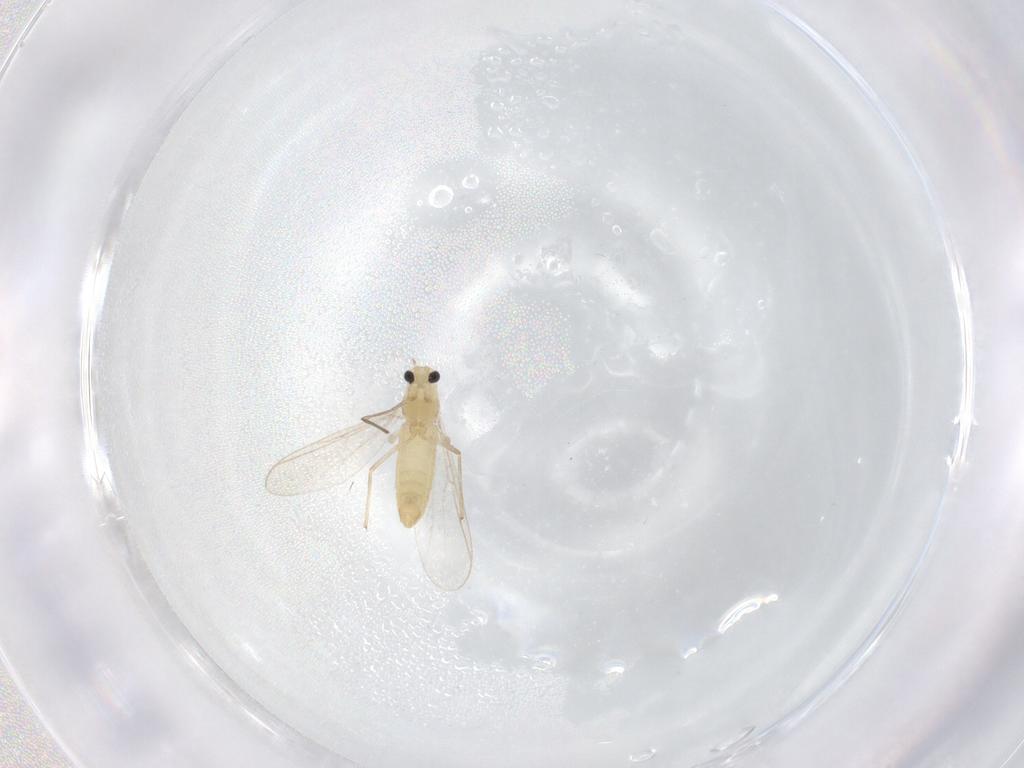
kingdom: Animalia
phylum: Arthropoda
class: Insecta
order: Diptera
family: Chironomidae
